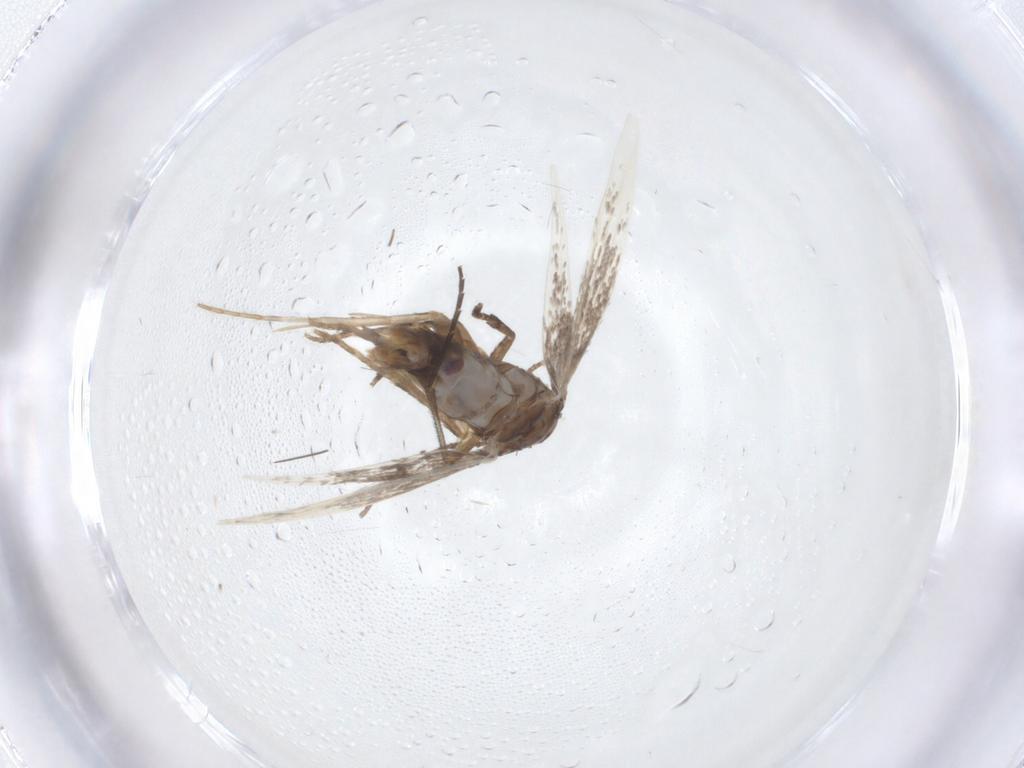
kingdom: Animalia
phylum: Arthropoda
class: Insecta
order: Lepidoptera
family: Elachistidae
